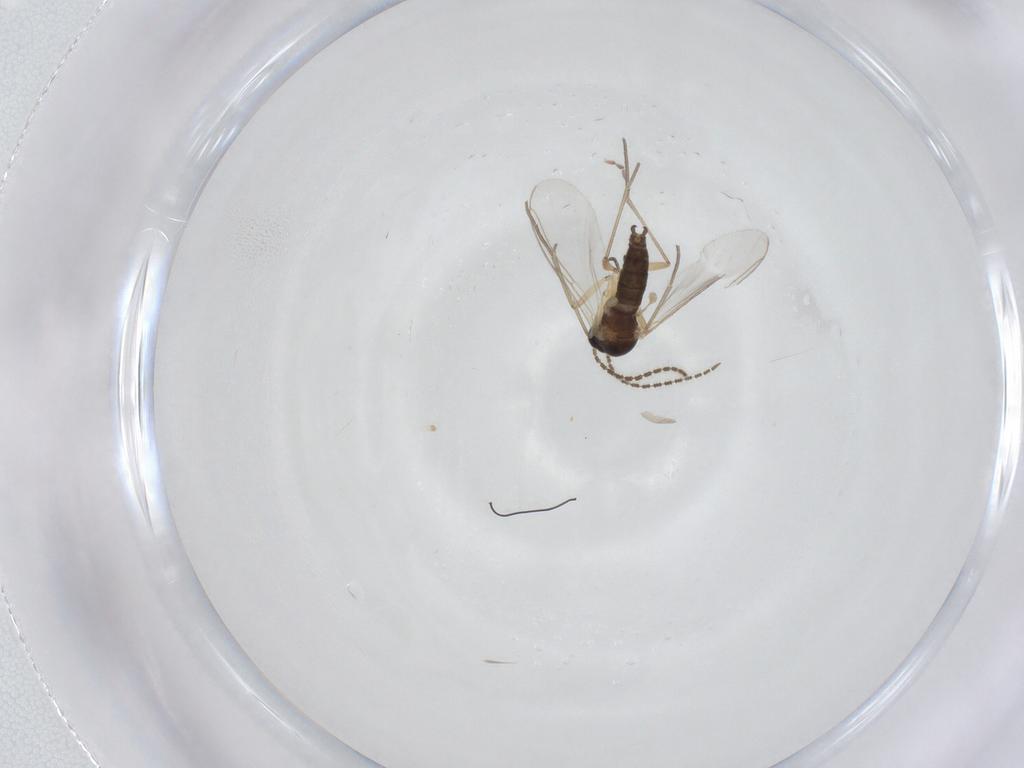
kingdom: Animalia
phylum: Arthropoda
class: Insecta
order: Diptera
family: Sciaridae
